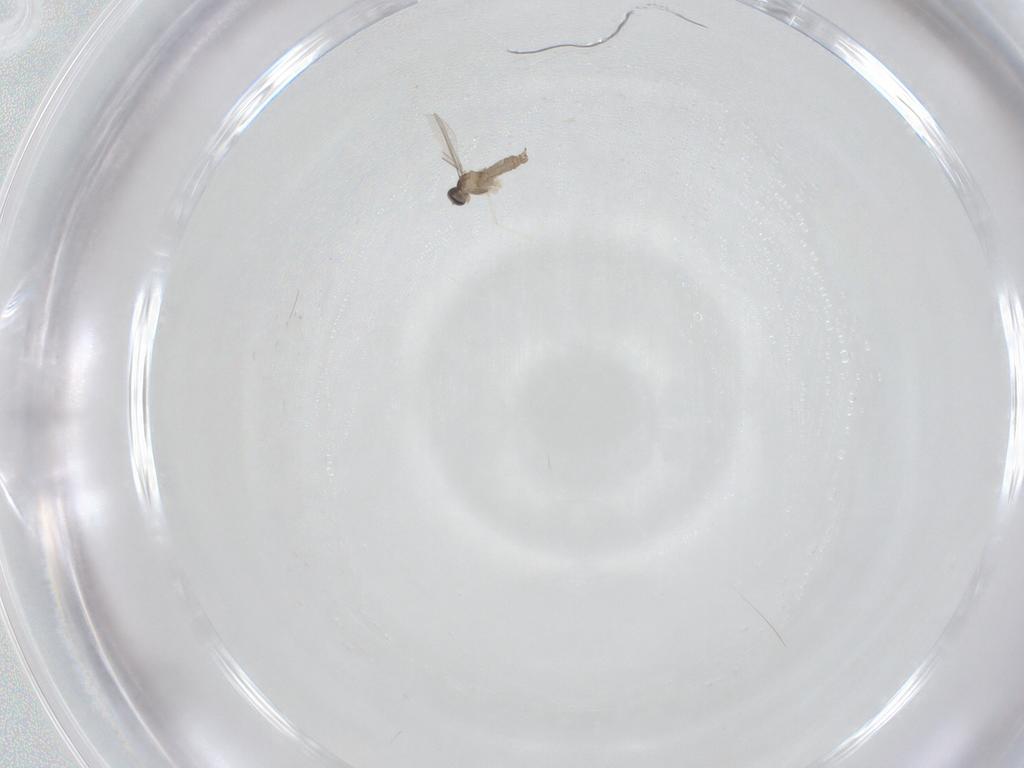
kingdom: Animalia
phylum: Arthropoda
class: Insecta
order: Diptera
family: Cecidomyiidae
